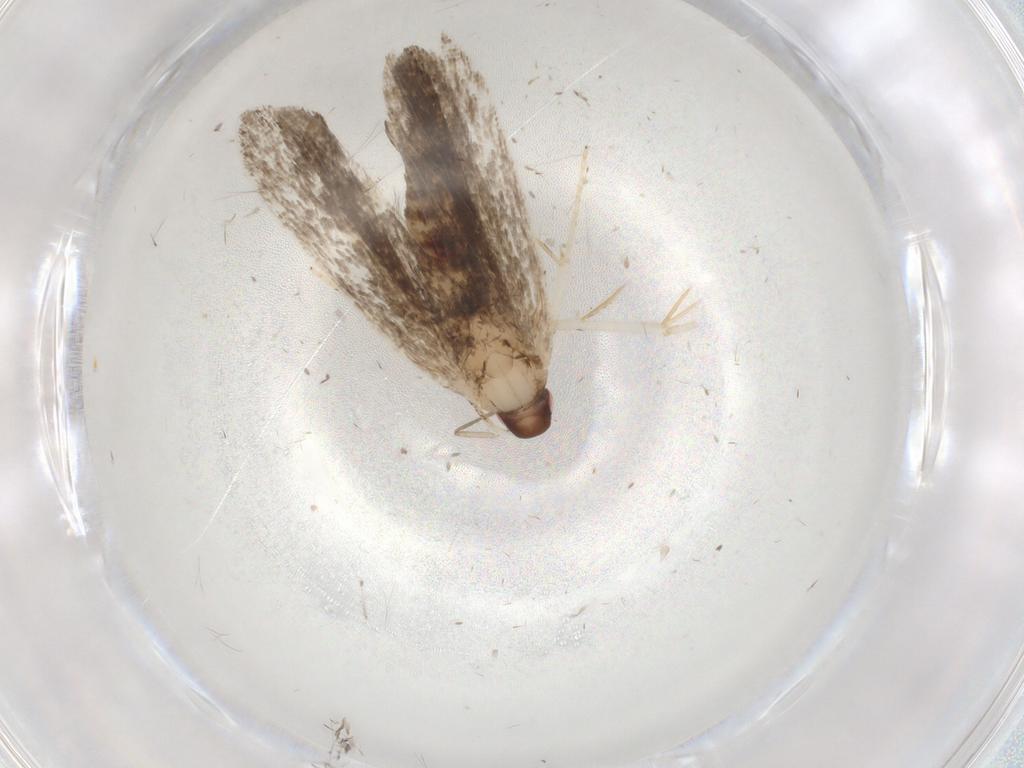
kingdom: Animalia
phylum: Arthropoda
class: Insecta
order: Lepidoptera
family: Gelechiidae
